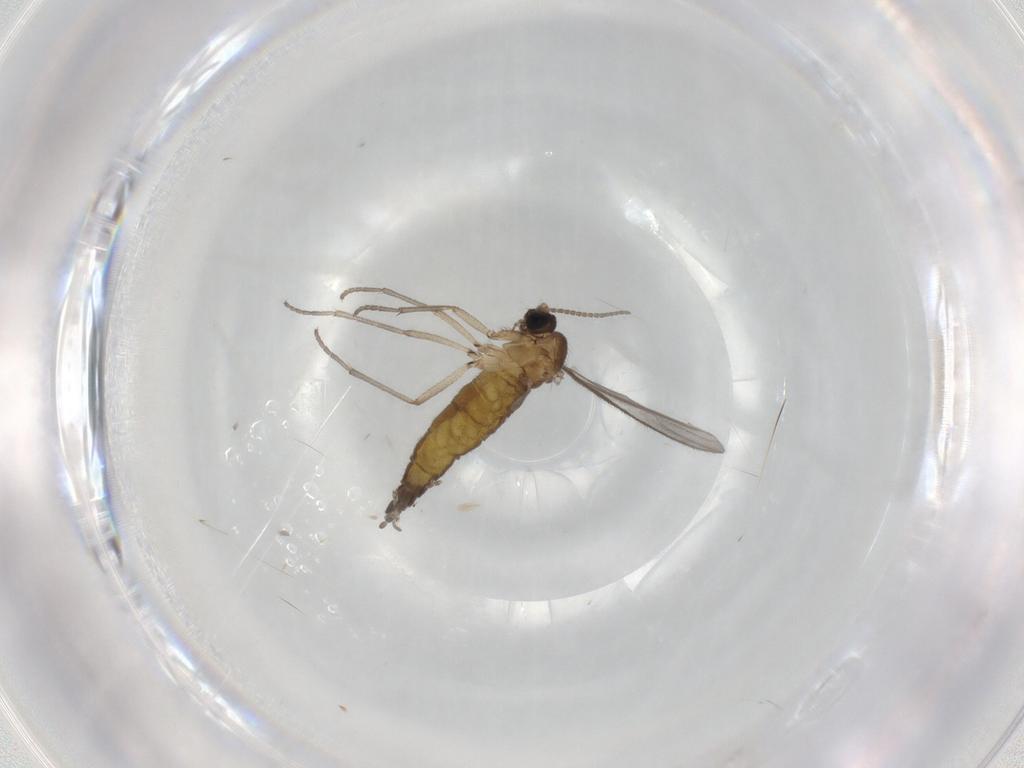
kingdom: Animalia
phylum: Arthropoda
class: Insecta
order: Diptera
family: Sciaridae
